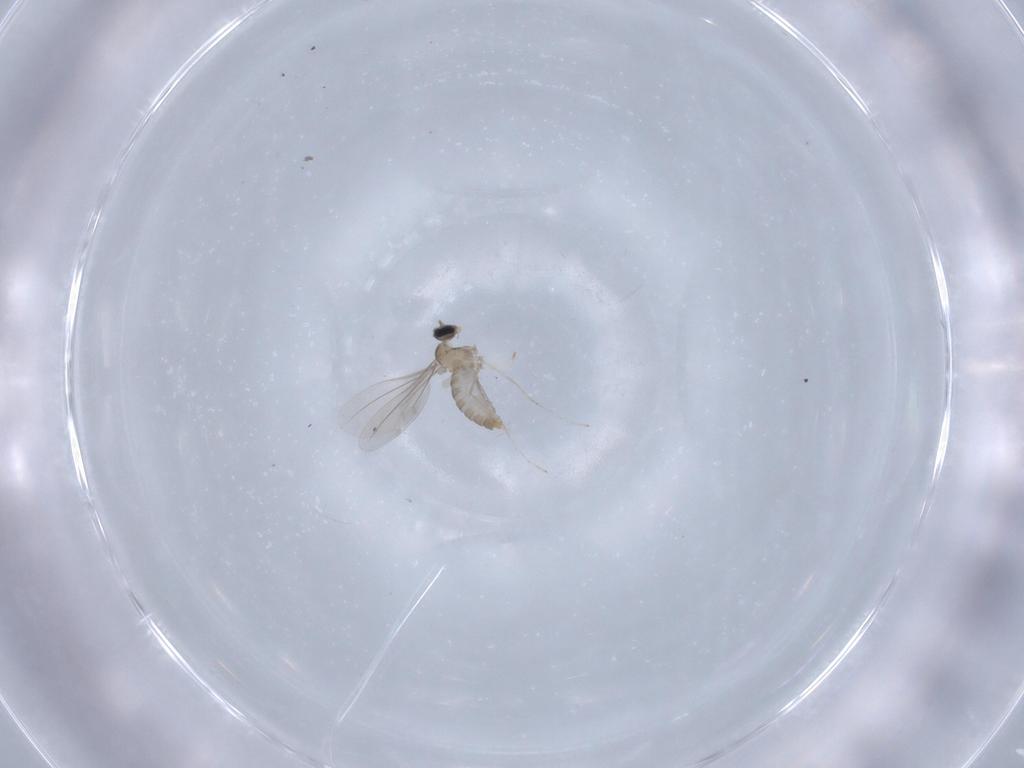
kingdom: Animalia
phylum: Arthropoda
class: Insecta
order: Diptera
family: Cecidomyiidae
